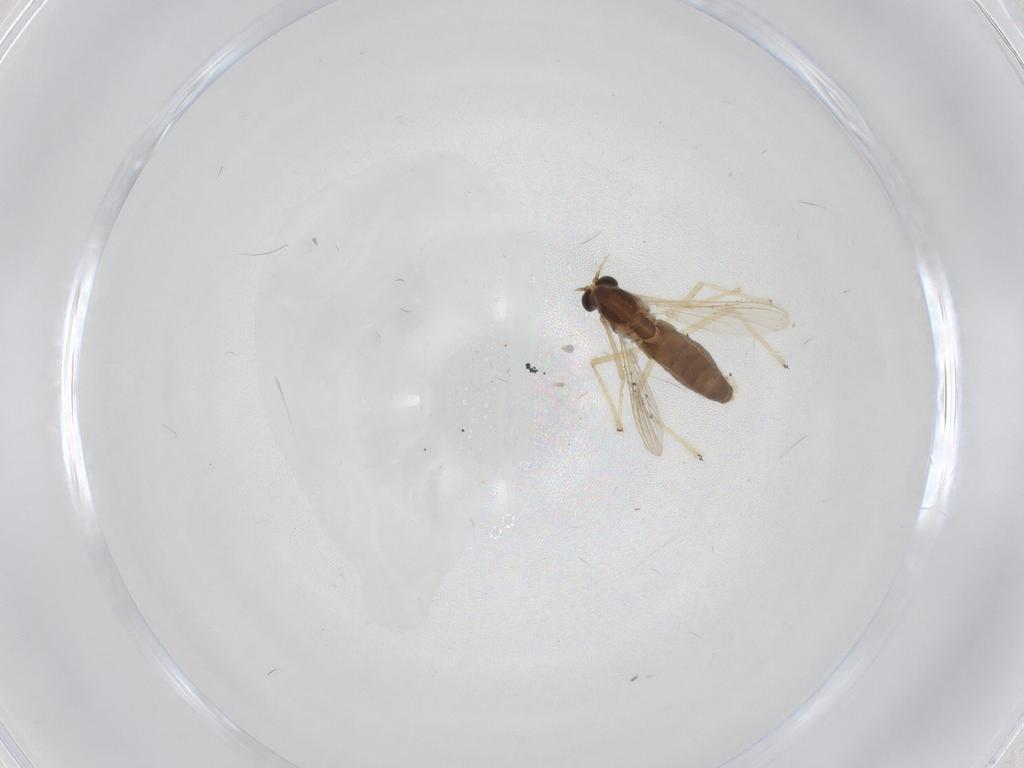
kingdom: Animalia
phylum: Arthropoda
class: Insecta
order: Diptera
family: Chironomidae
